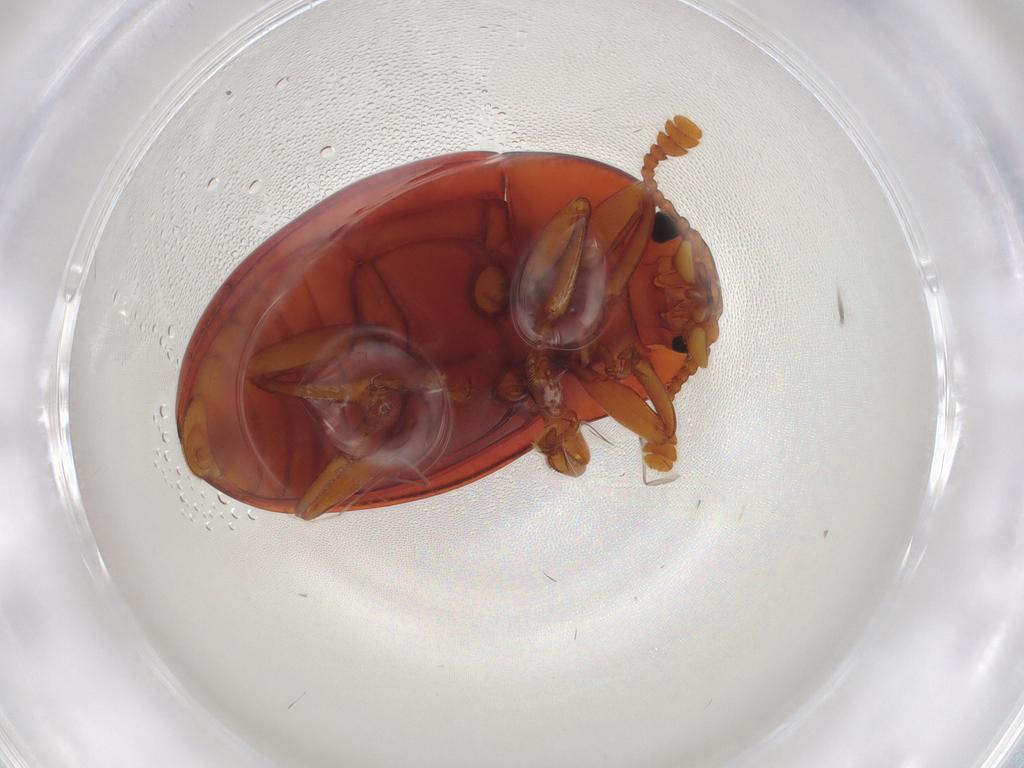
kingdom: Animalia
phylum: Arthropoda
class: Insecta
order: Coleoptera
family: Erotylidae
